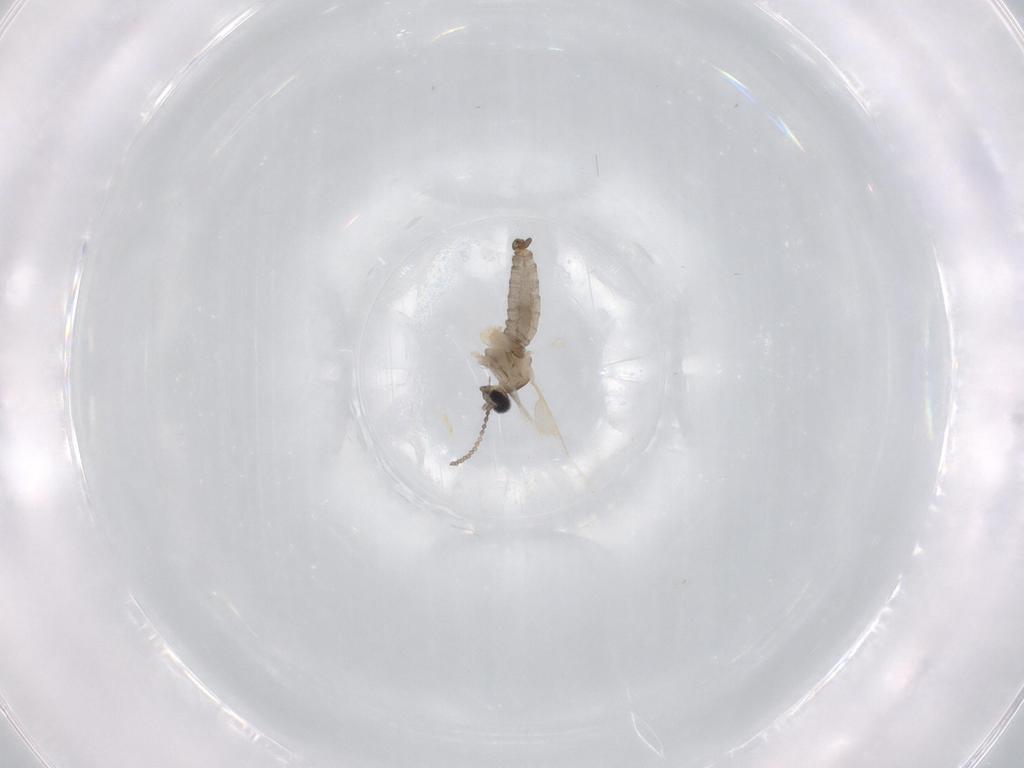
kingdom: Animalia
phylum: Arthropoda
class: Insecta
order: Diptera
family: Cecidomyiidae
